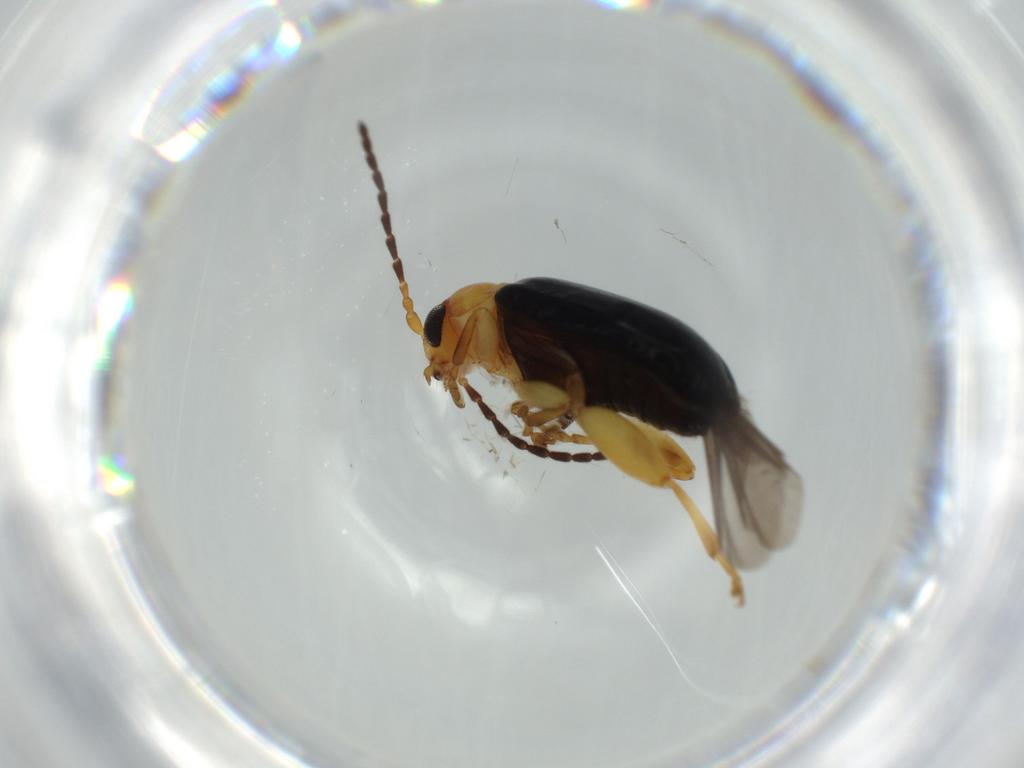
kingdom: Animalia
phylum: Arthropoda
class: Insecta
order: Coleoptera
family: Chrysomelidae
